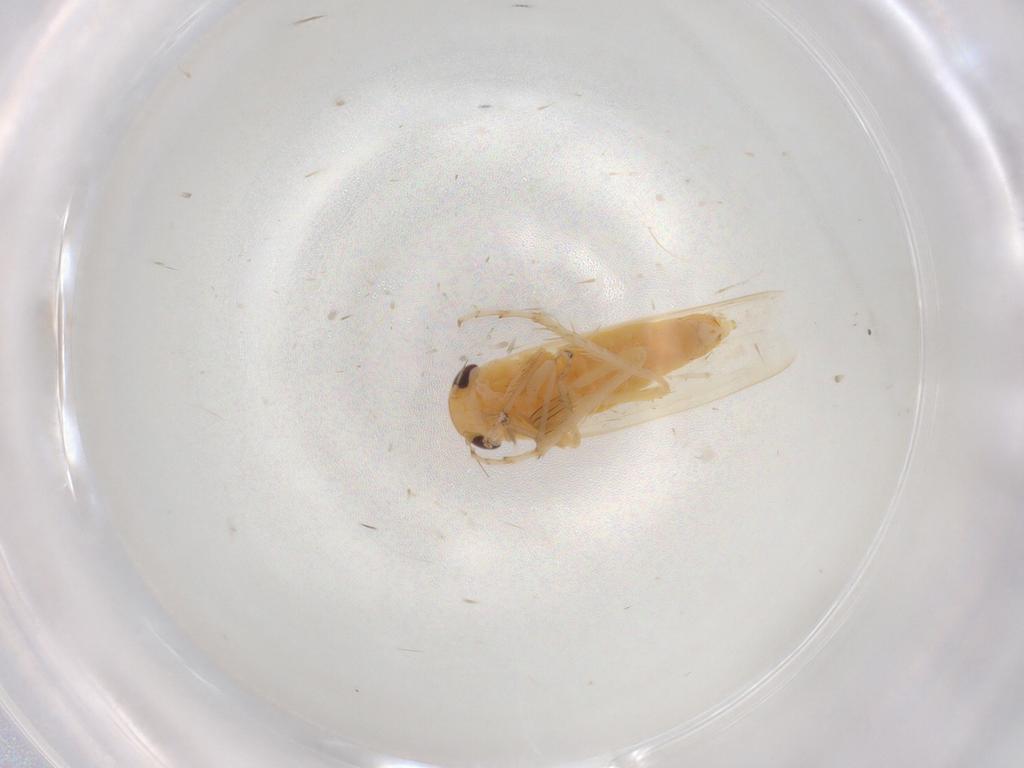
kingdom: Animalia
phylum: Arthropoda
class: Insecta
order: Hemiptera
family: Cicadellidae
